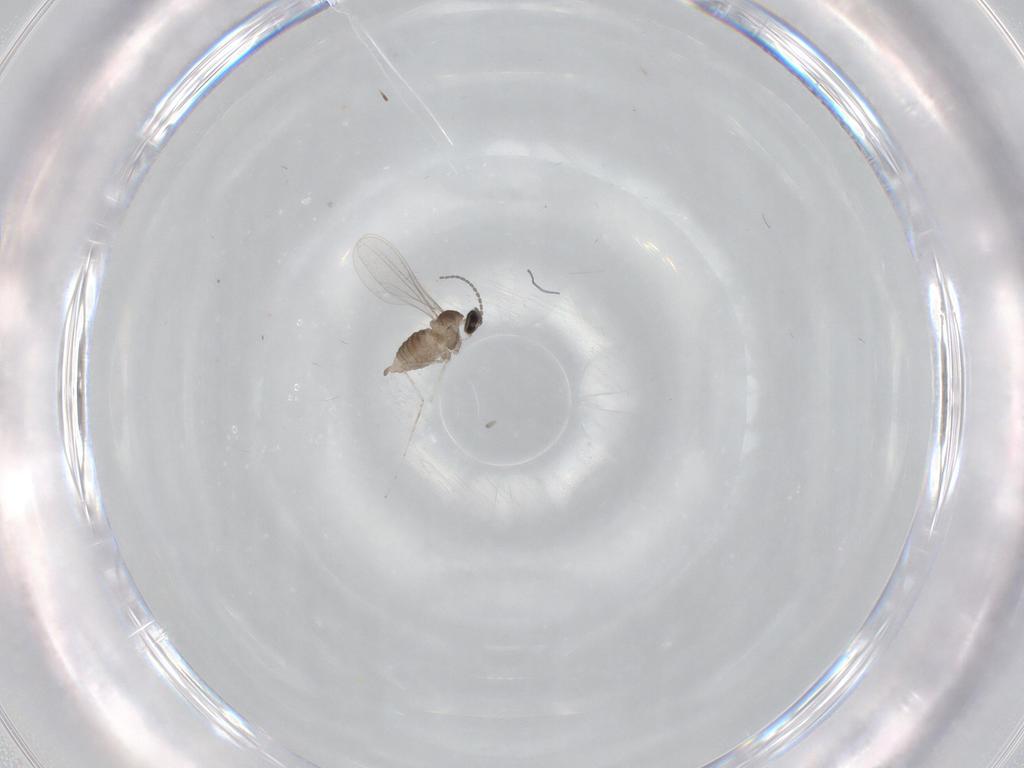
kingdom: Animalia
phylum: Arthropoda
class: Insecta
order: Diptera
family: Cecidomyiidae
